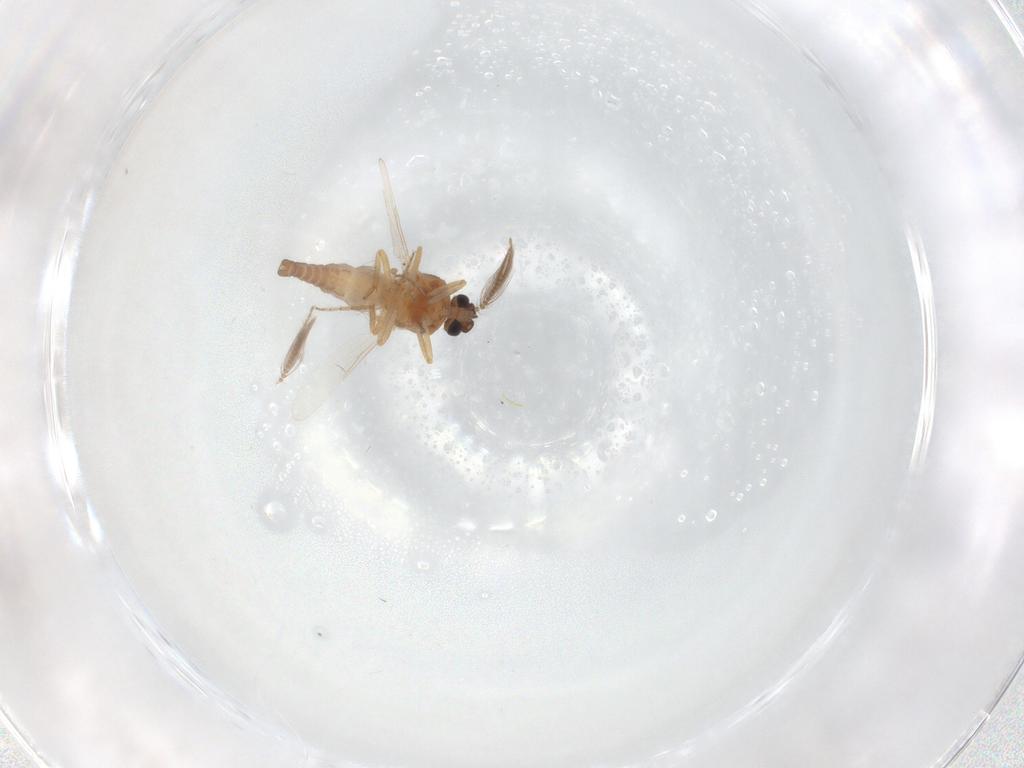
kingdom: Animalia
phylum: Arthropoda
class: Insecta
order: Diptera
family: Ceratopogonidae
